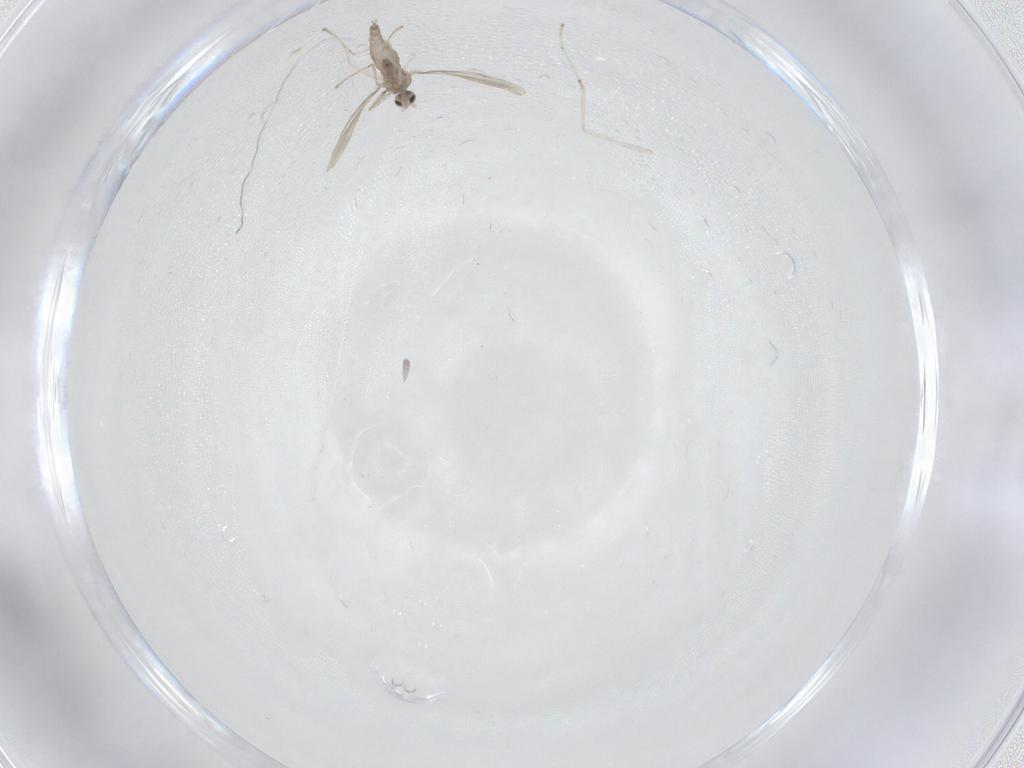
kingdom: Animalia
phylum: Arthropoda
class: Insecta
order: Diptera
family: Cecidomyiidae
